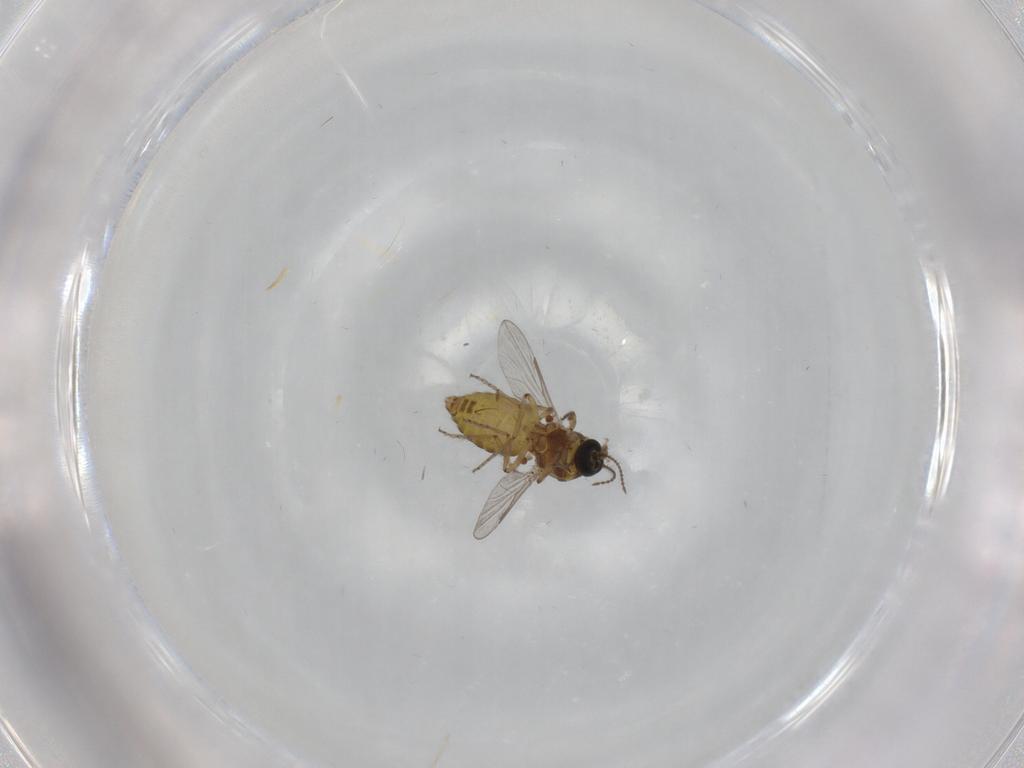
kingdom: Animalia
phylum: Arthropoda
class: Insecta
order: Diptera
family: Ceratopogonidae
